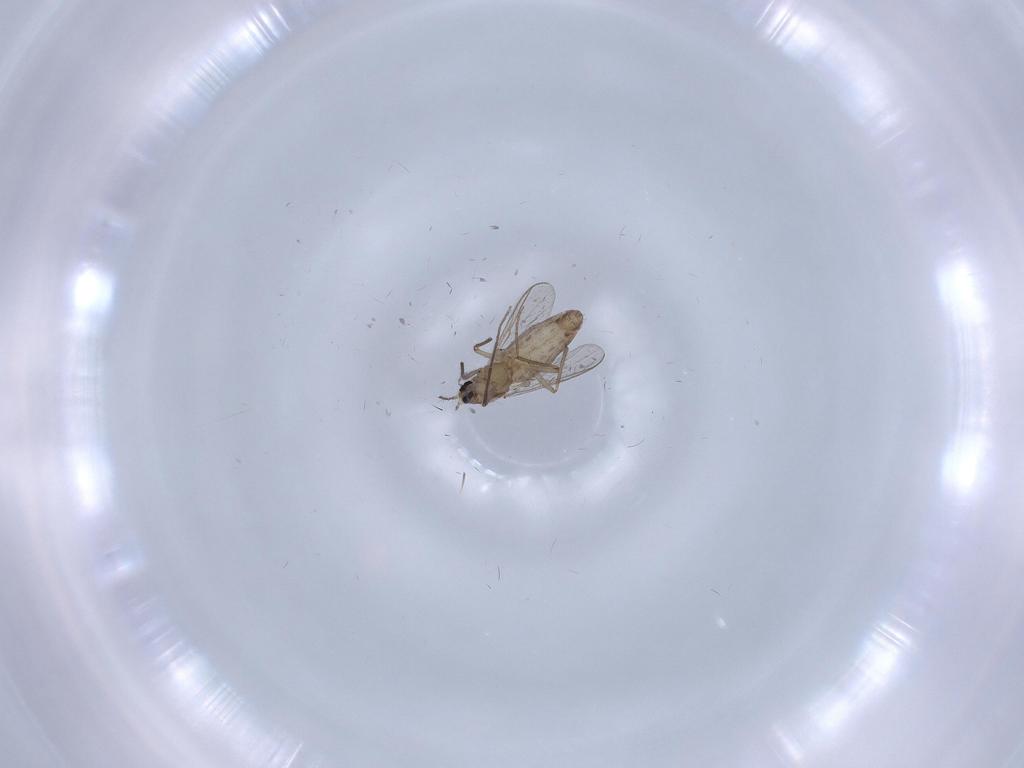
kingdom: Animalia
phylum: Arthropoda
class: Insecta
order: Diptera
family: Chironomidae
